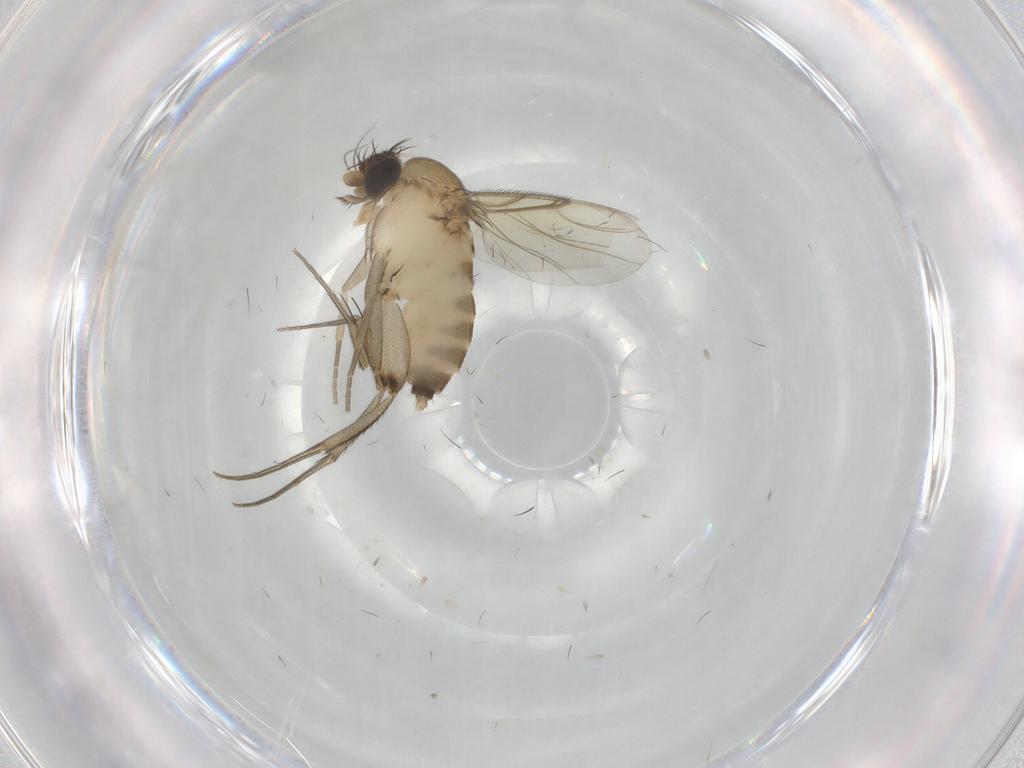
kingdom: Animalia
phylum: Arthropoda
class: Insecta
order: Diptera
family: Phoridae
